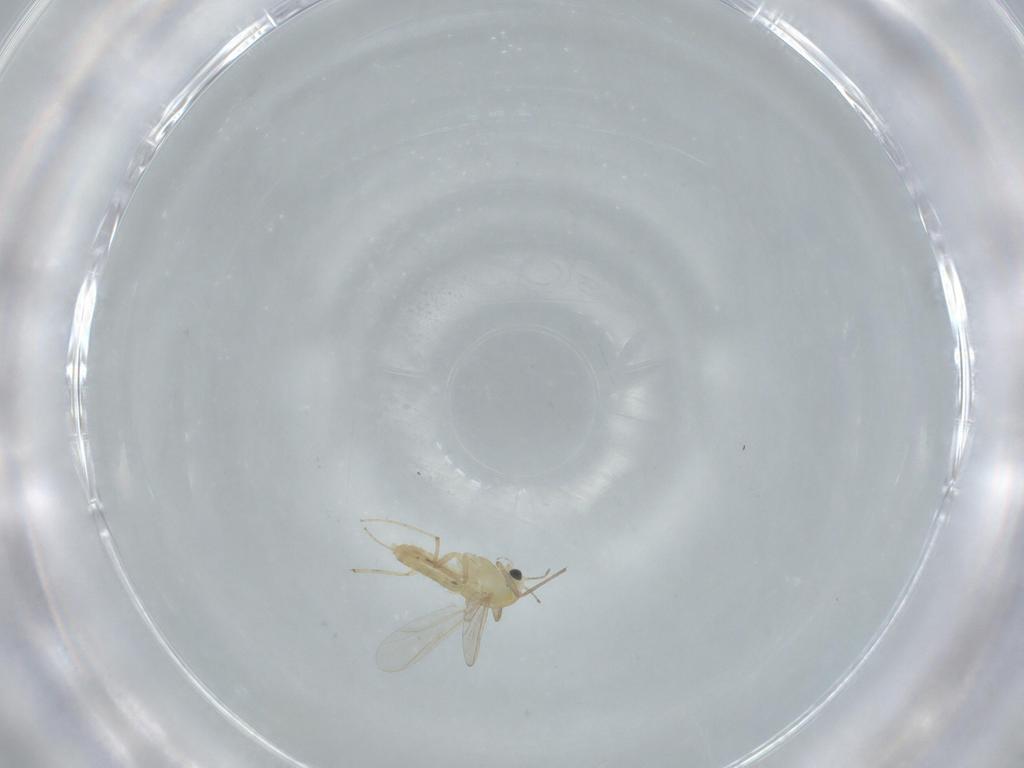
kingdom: Animalia
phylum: Arthropoda
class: Insecta
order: Diptera
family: Chironomidae
